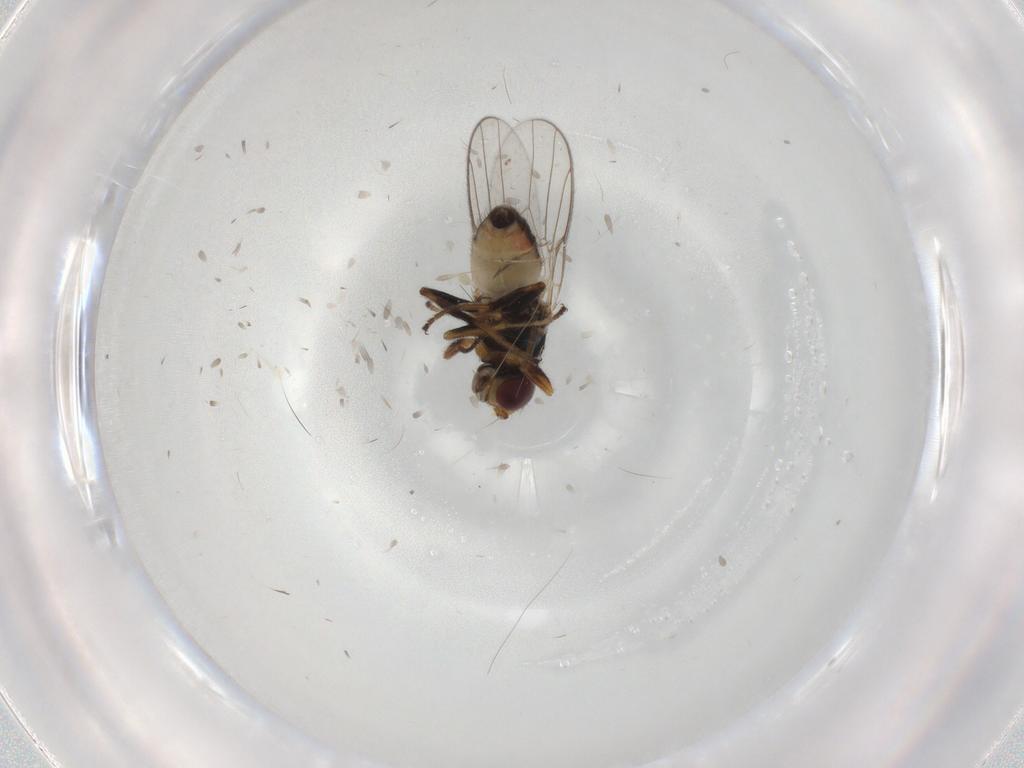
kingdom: Animalia
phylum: Arthropoda
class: Insecta
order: Diptera
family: Chloropidae
